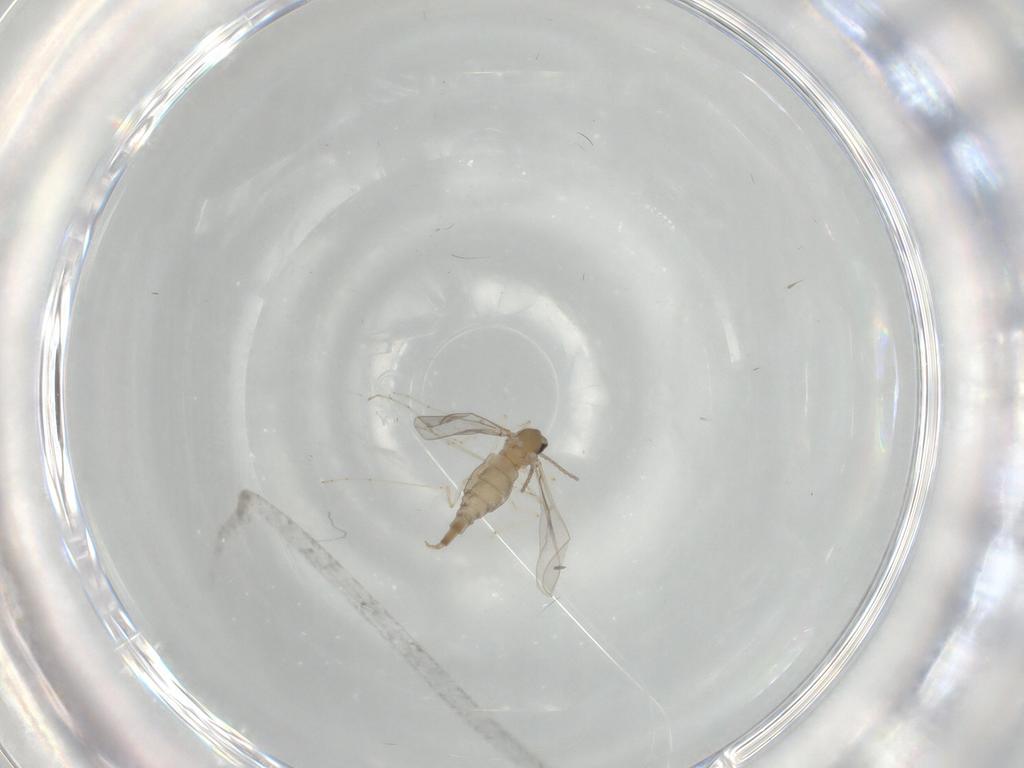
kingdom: Animalia
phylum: Arthropoda
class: Insecta
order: Diptera
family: Cecidomyiidae
